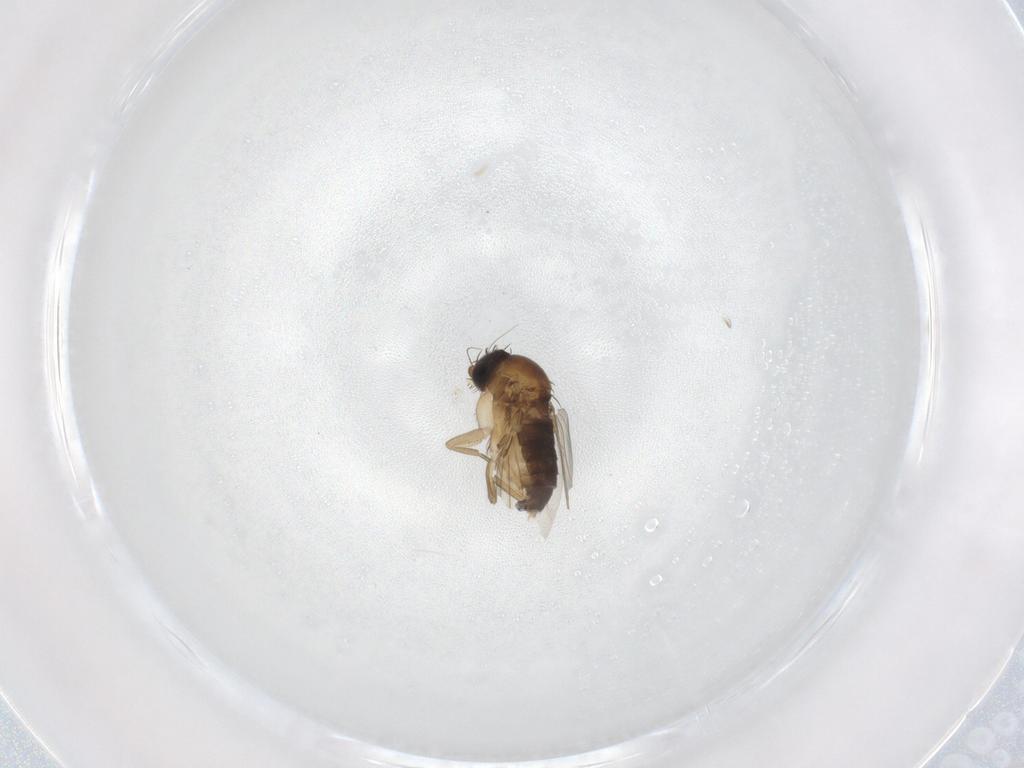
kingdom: Animalia
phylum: Arthropoda
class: Insecta
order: Diptera
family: Phoridae
